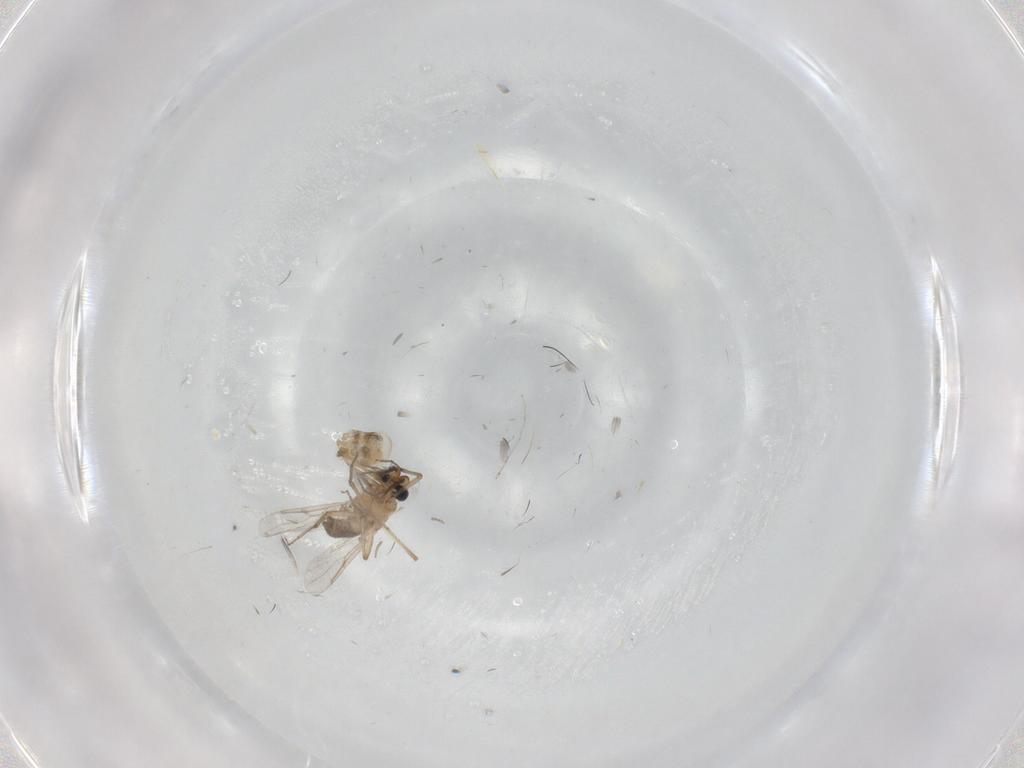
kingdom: Animalia
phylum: Arthropoda
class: Insecta
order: Diptera
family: Cecidomyiidae
